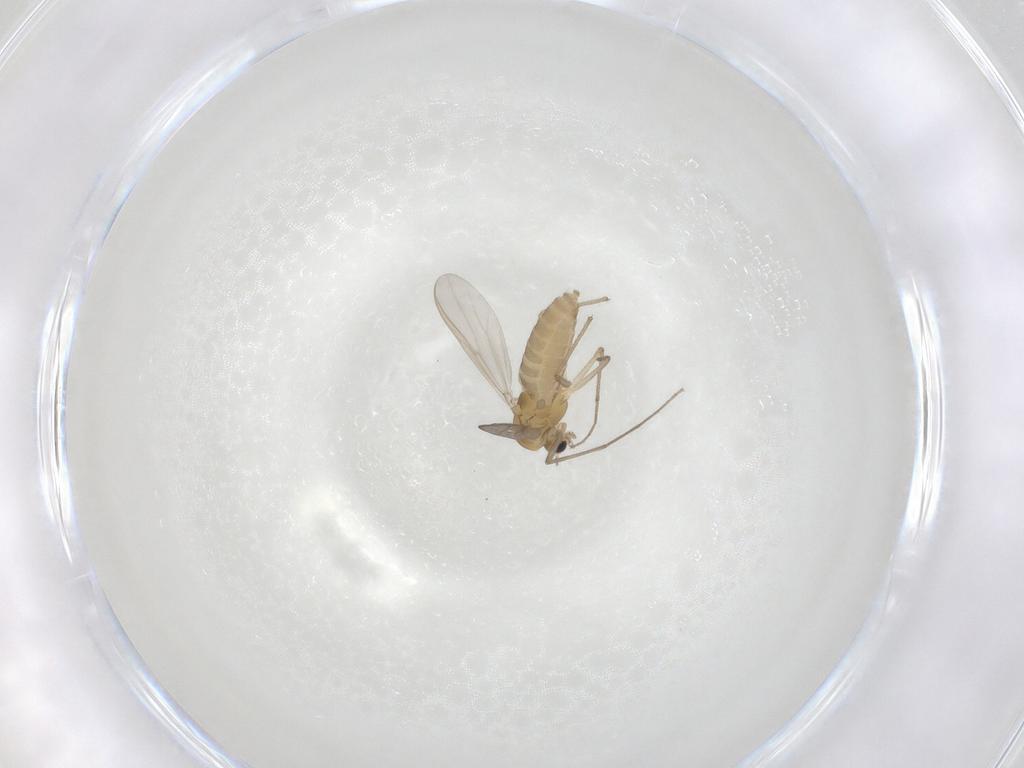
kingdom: Animalia
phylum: Arthropoda
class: Insecta
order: Diptera
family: Chironomidae
